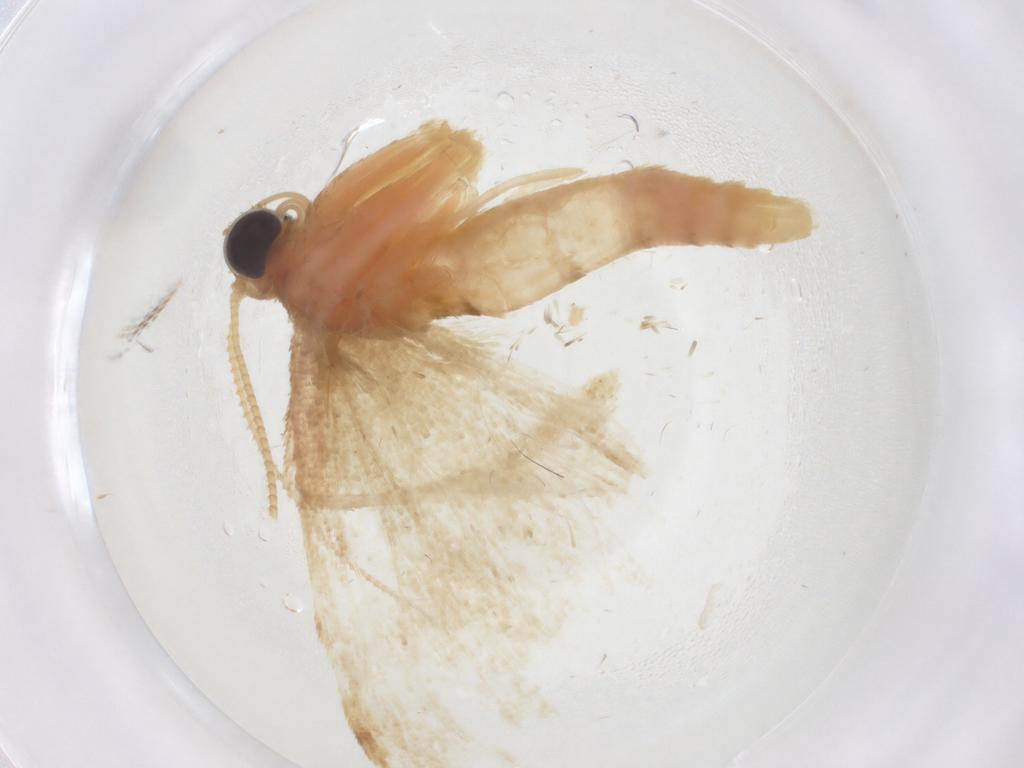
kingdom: Animalia
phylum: Arthropoda
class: Insecta
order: Lepidoptera
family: Geometridae
